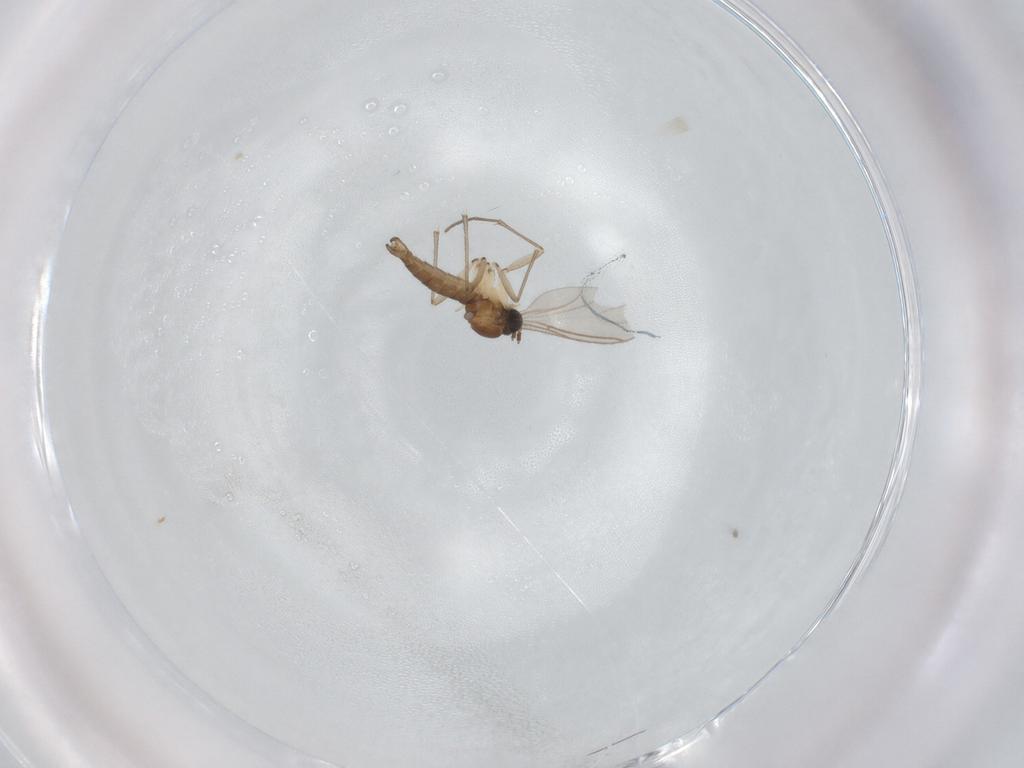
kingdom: Animalia
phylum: Arthropoda
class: Insecta
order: Diptera
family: Sciaridae
